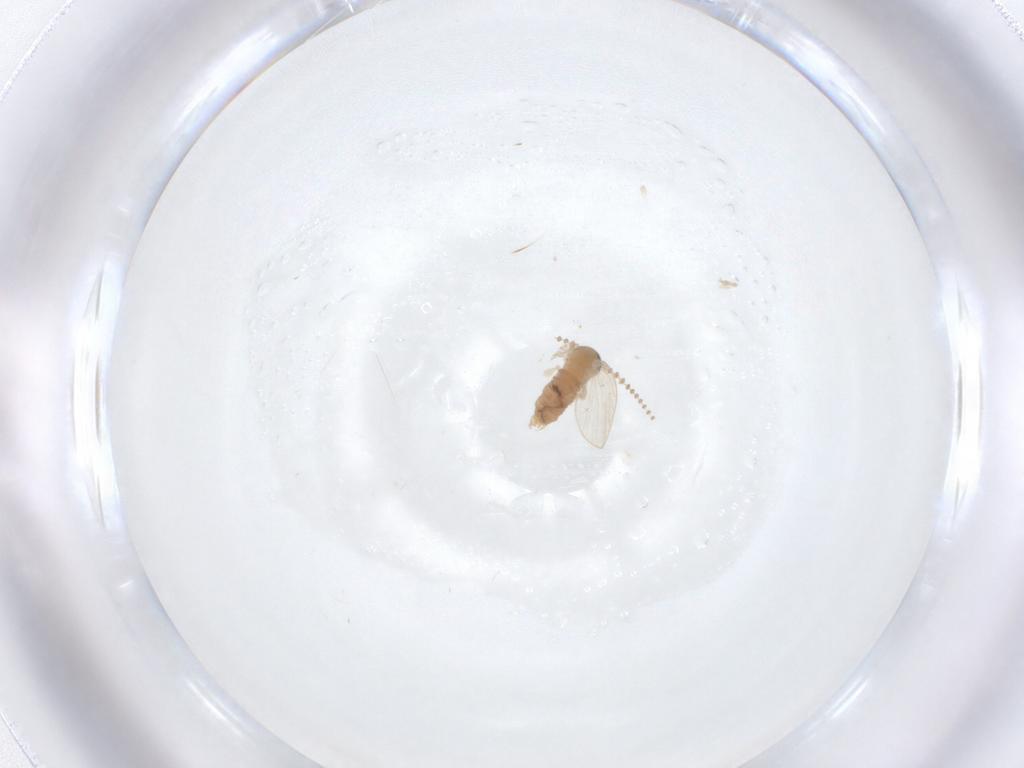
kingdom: Animalia
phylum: Arthropoda
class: Insecta
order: Diptera
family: Psychodidae
